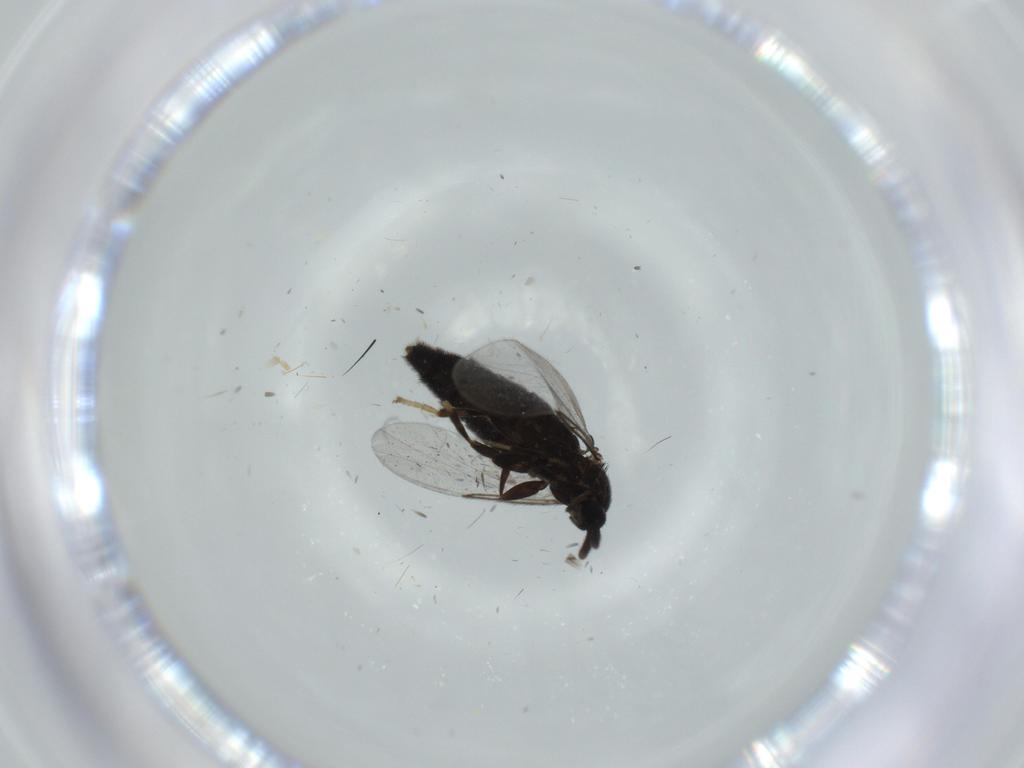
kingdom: Animalia
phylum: Arthropoda
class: Insecta
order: Diptera
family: Scatopsidae
